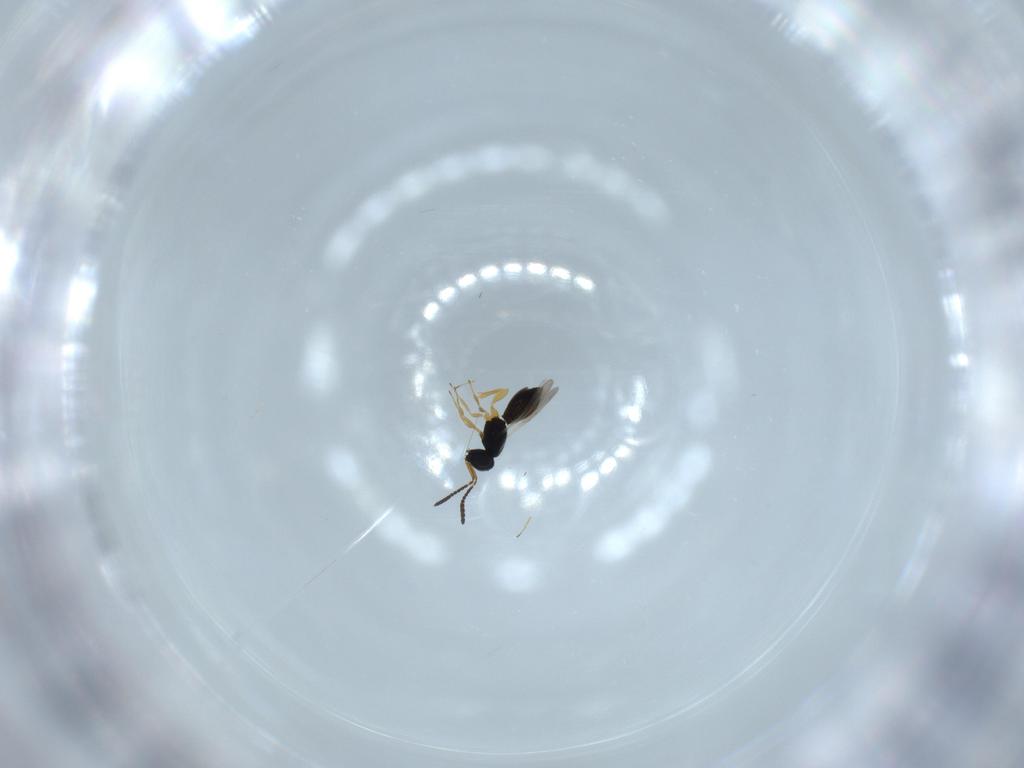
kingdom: Animalia
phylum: Arthropoda
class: Insecta
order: Hymenoptera
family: Scelionidae
